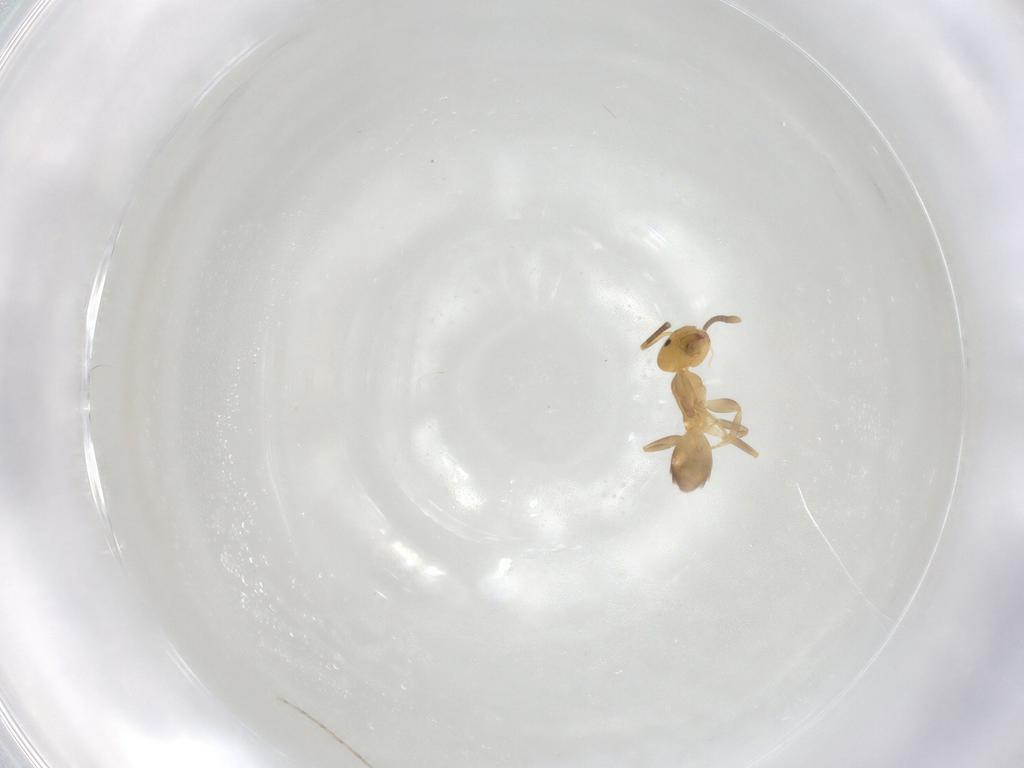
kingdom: Animalia
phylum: Arthropoda
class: Insecta
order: Hymenoptera
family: Formicidae
